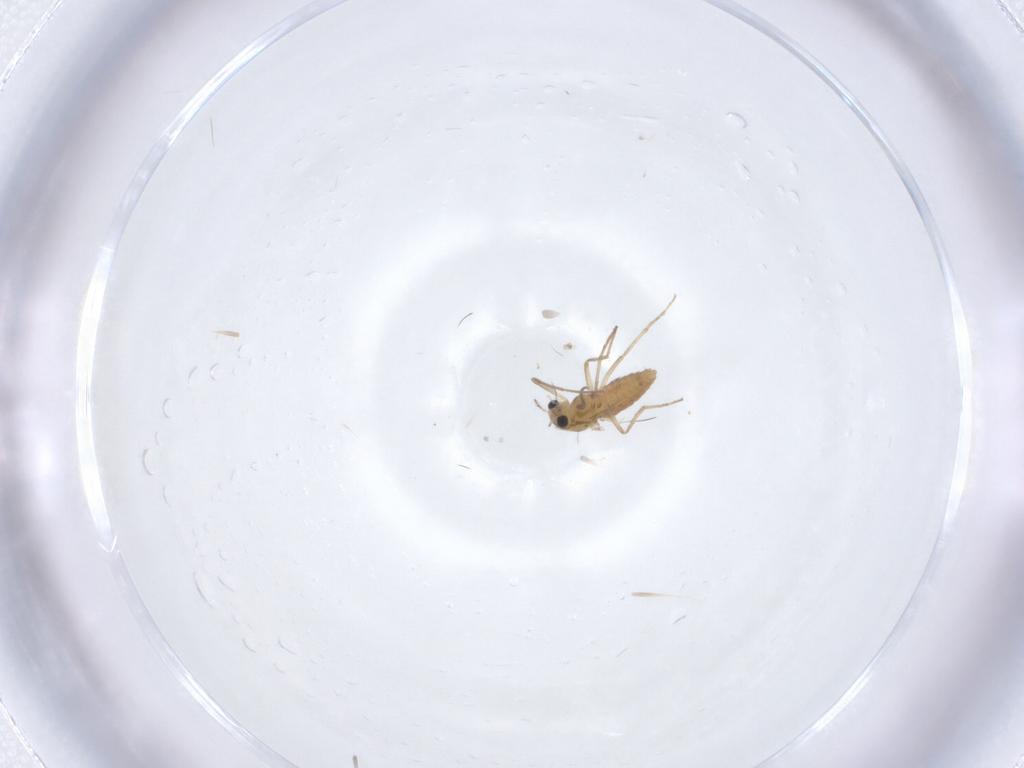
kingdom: Animalia
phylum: Arthropoda
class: Insecta
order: Diptera
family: Chironomidae
